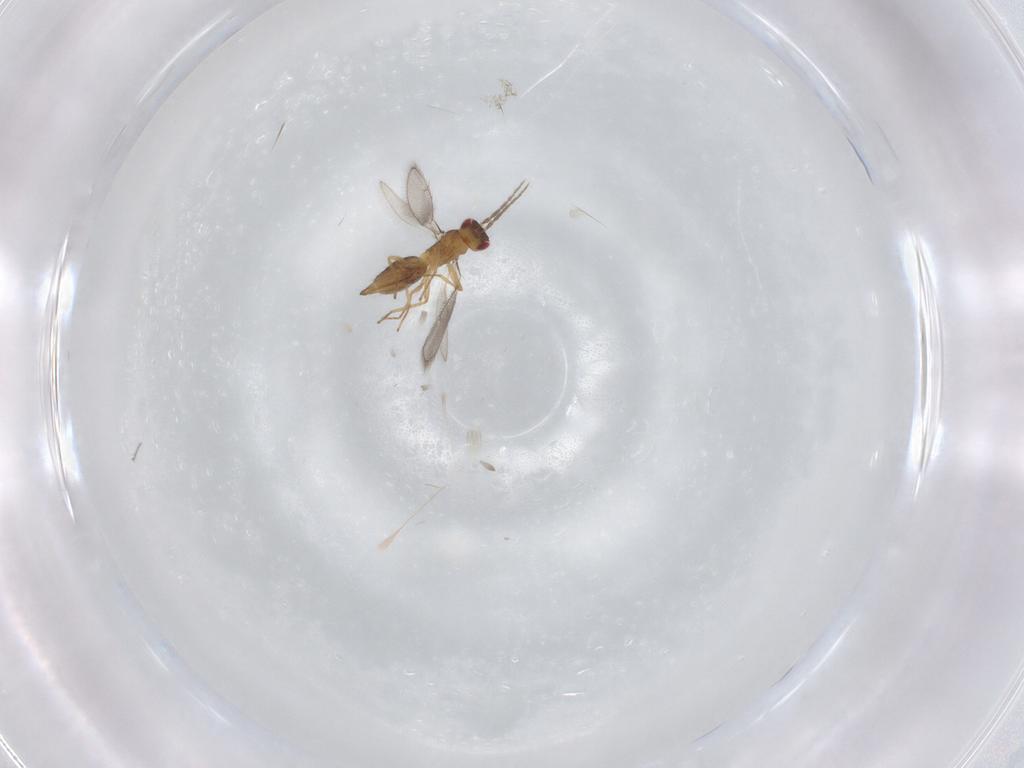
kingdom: Animalia
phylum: Arthropoda
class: Insecta
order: Hymenoptera
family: Eulophidae
